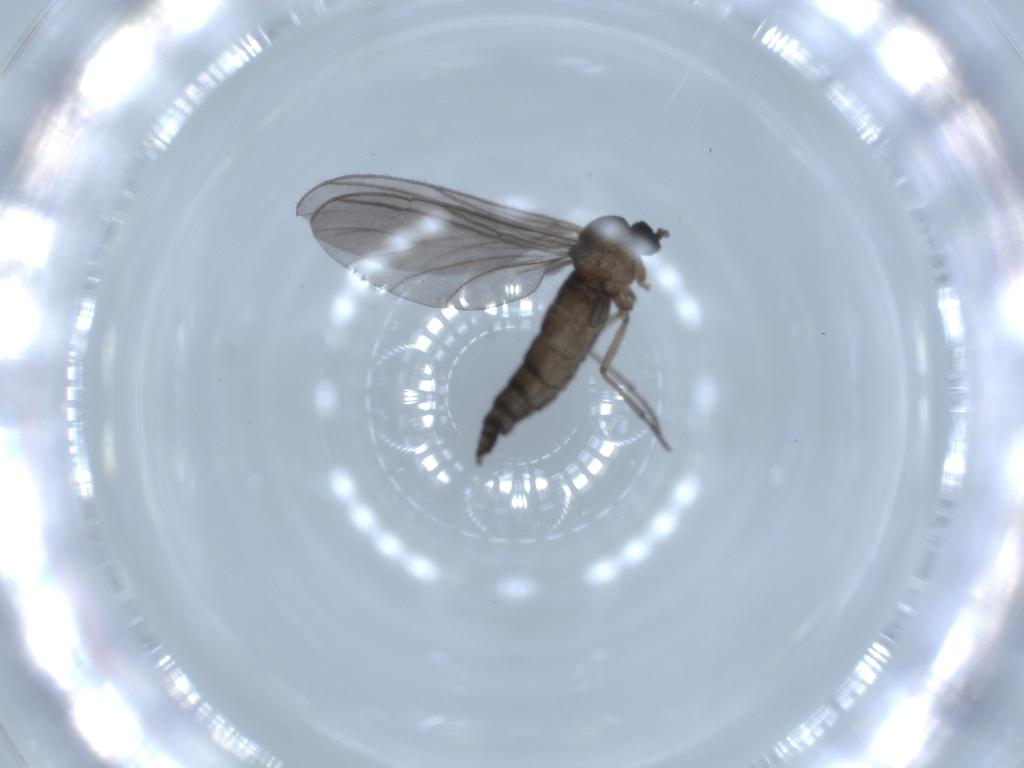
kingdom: Animalia
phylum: Arthropoda
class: Insecta
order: Diptera
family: Sciaridae
